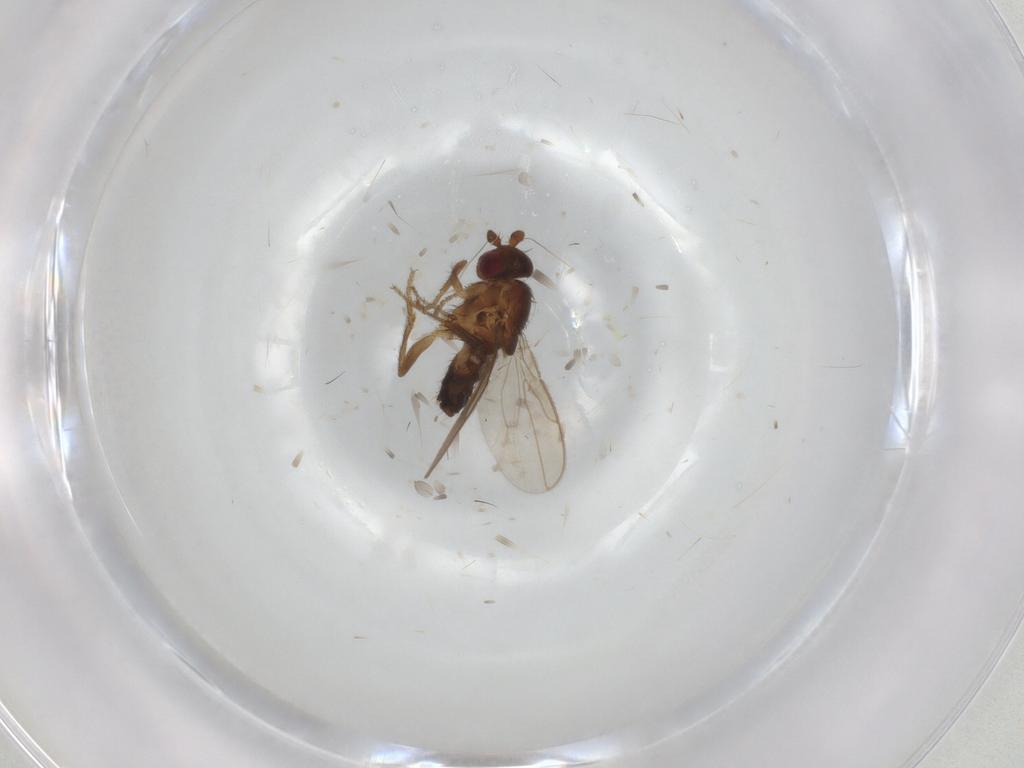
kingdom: Animalia
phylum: Arthropoda
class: Insecta
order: Diptera
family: Sphaeroceridae
